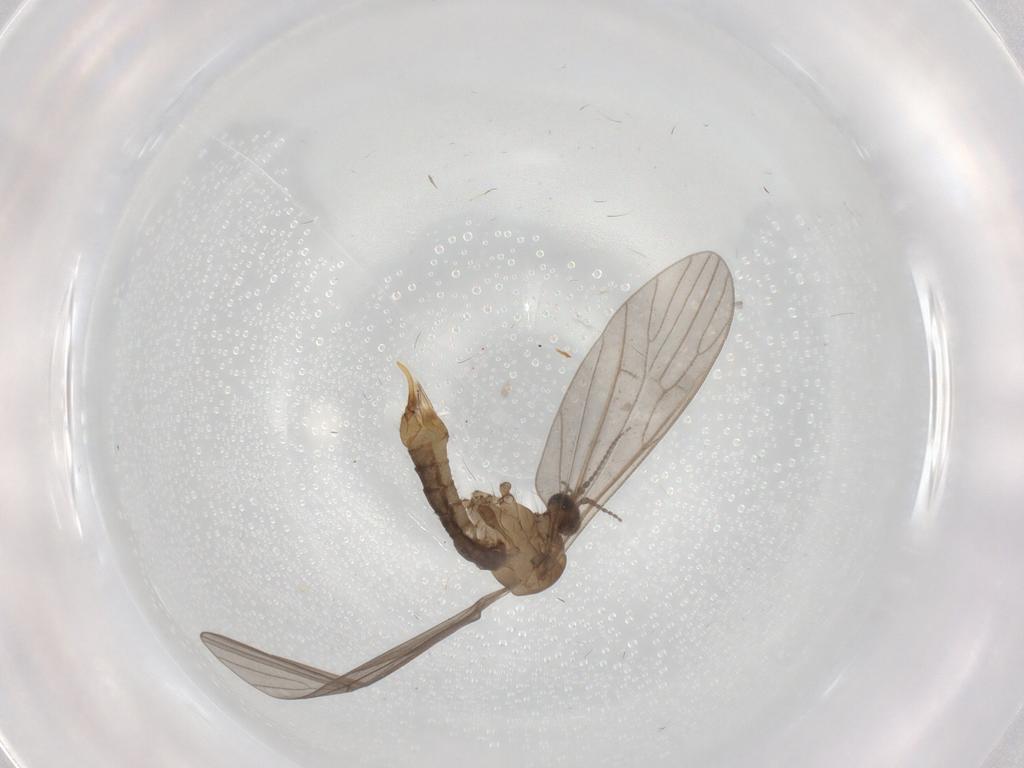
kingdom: Animalia
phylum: Arthropoda
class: Insecta
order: Diptera
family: Limoniidae
